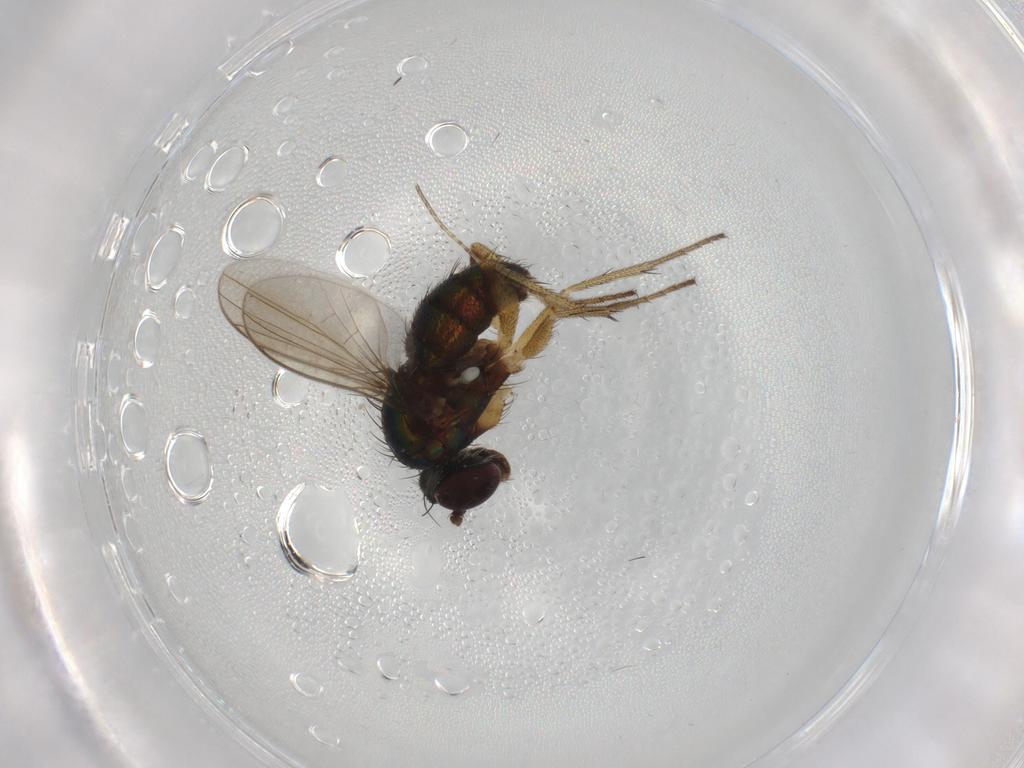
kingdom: Animalia
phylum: Arthropoda
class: Insecta
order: Diptera
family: Dolichopodidae
